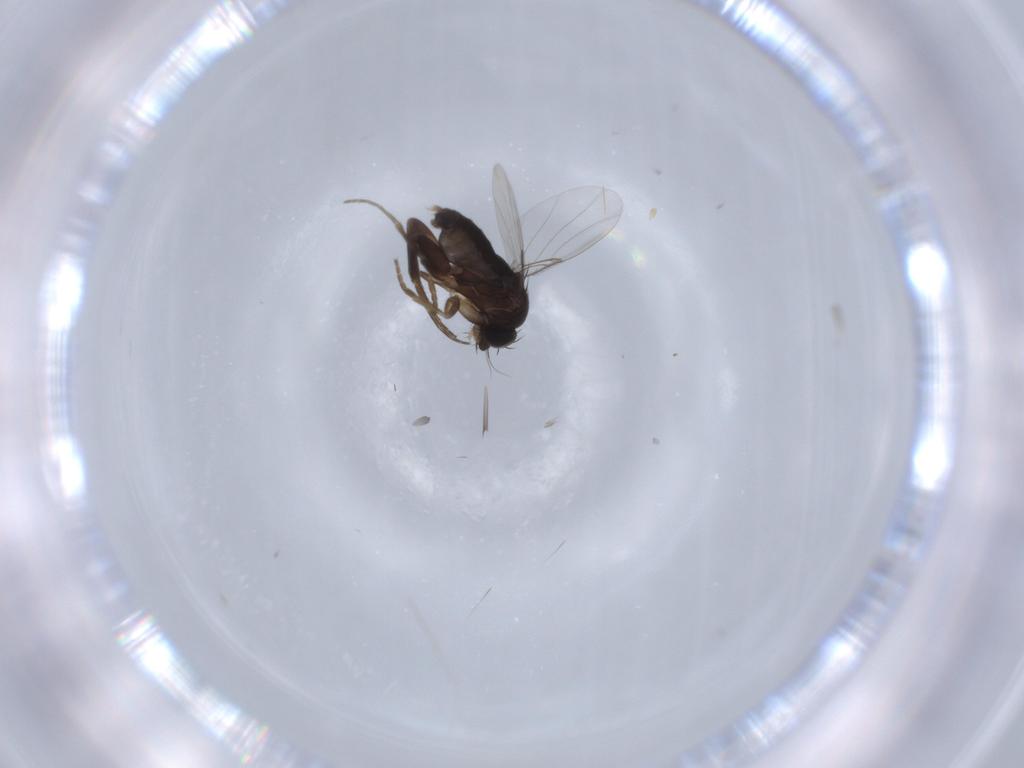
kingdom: Animalia
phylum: Arthropoda
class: Insecta
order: Diptera
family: Phoridae
